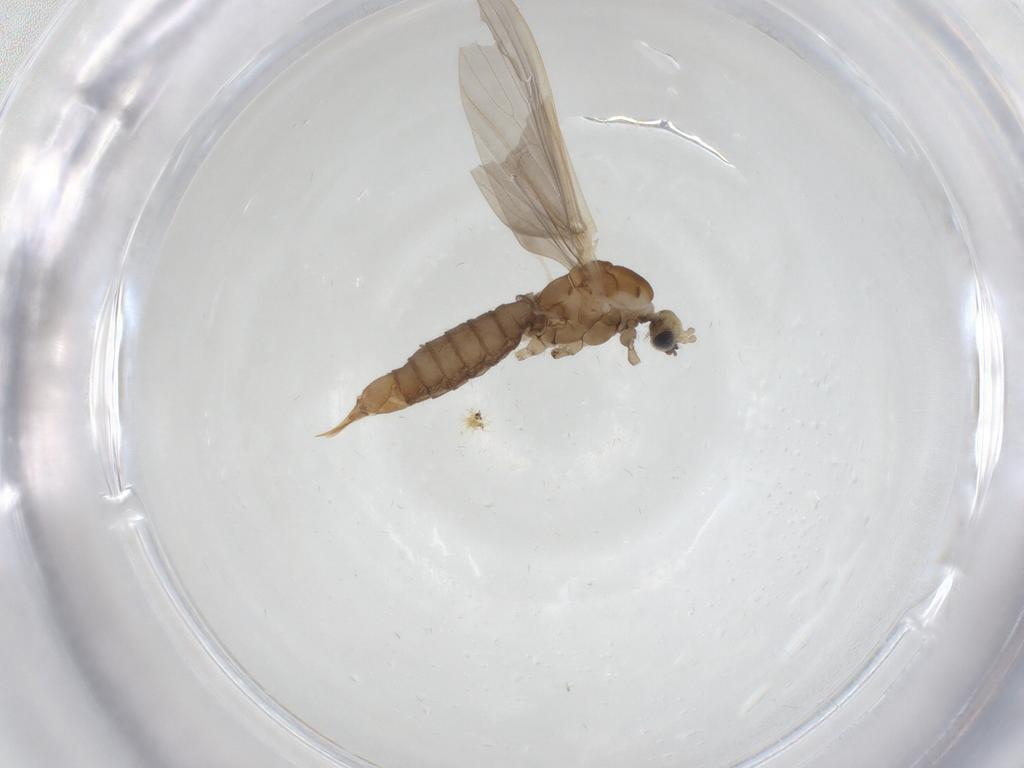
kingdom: Animalia
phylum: Arthropoda
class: Insecta
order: Diptera
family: Limoniidae
